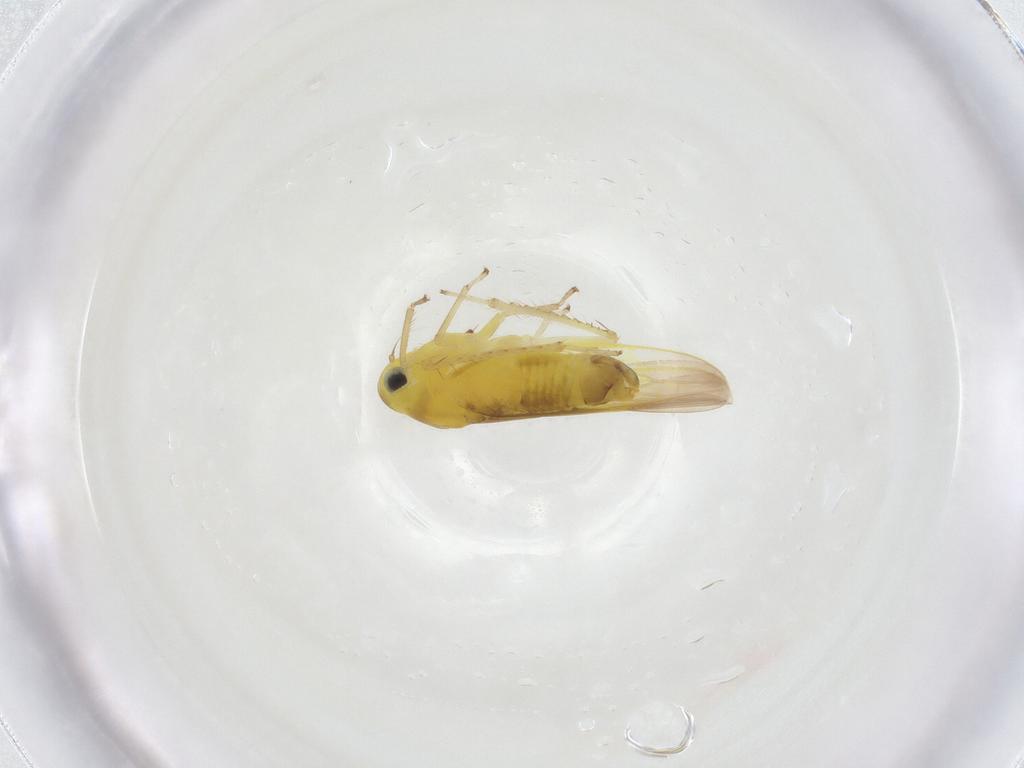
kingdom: Animalia
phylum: Arthropoda
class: Insecta
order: Hemiptera
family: Cicadellidae
